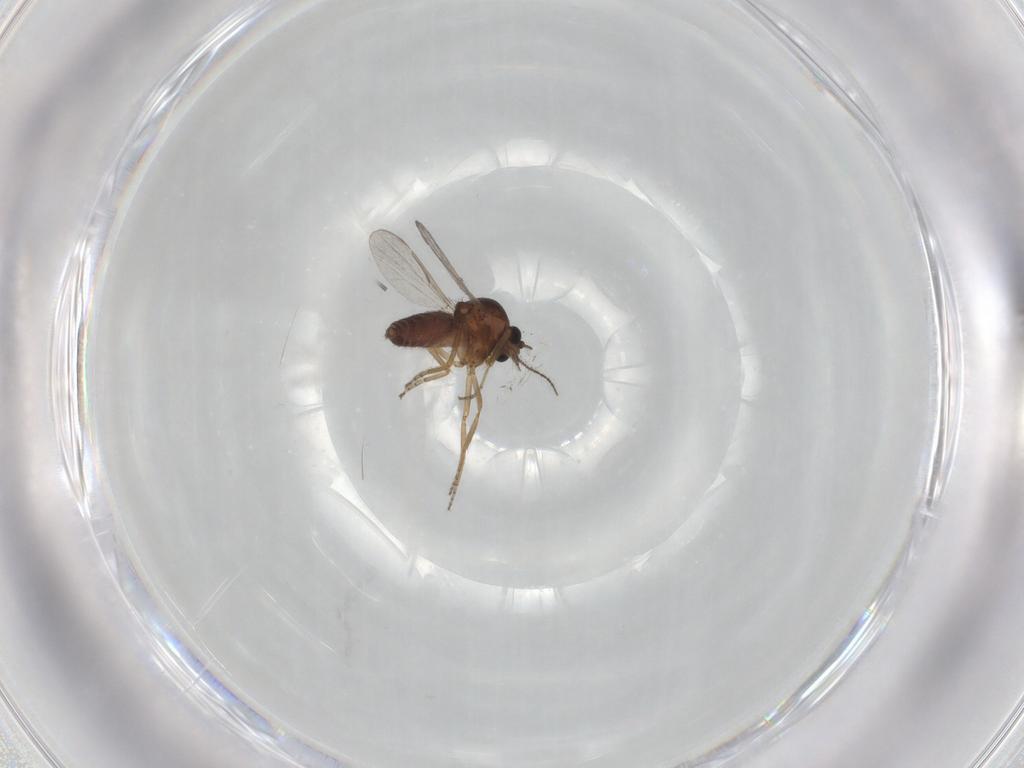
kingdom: Animalia
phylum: Arthropoda
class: Insecta
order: Diptera
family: Ceratopogonidae
